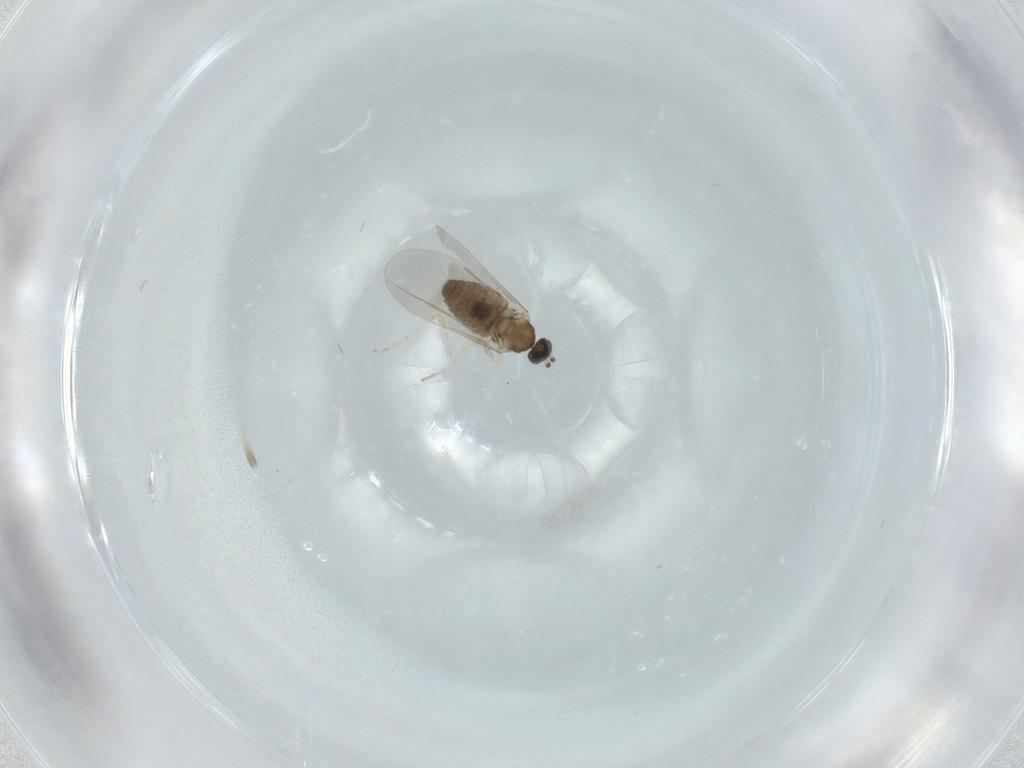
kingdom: Animalia
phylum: Arthropoda
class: Insecta
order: Diptera
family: Cecidomyiidae
